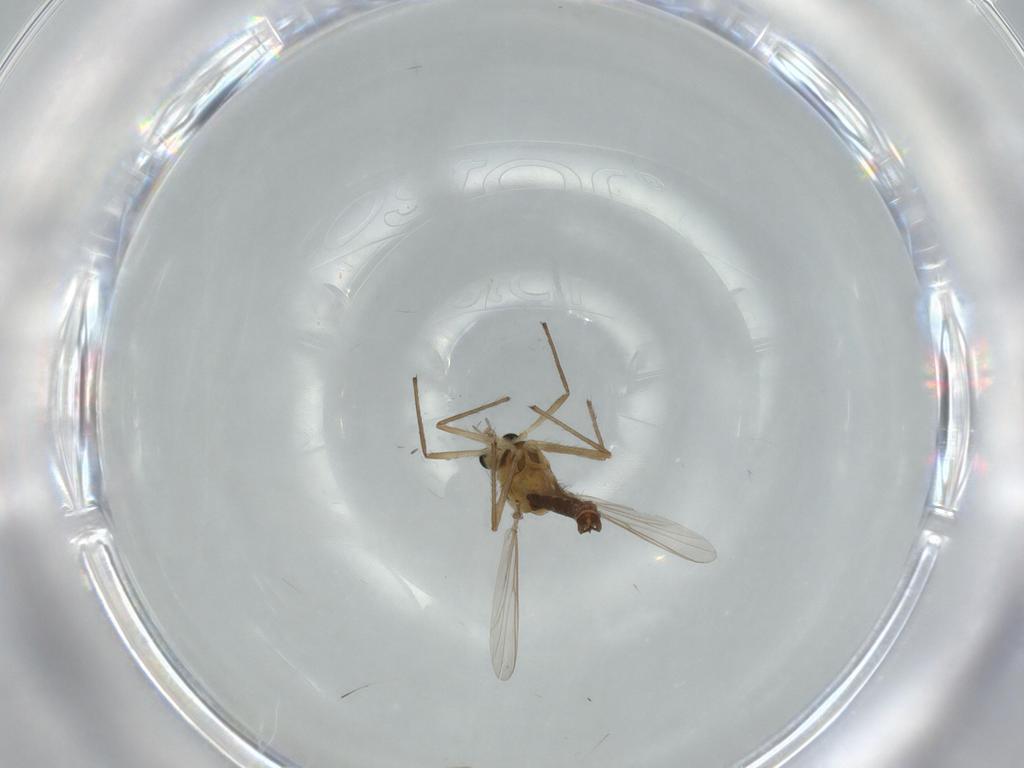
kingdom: Animalia
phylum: Arthropoda
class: Insecta
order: Diptera
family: Chironomidae
